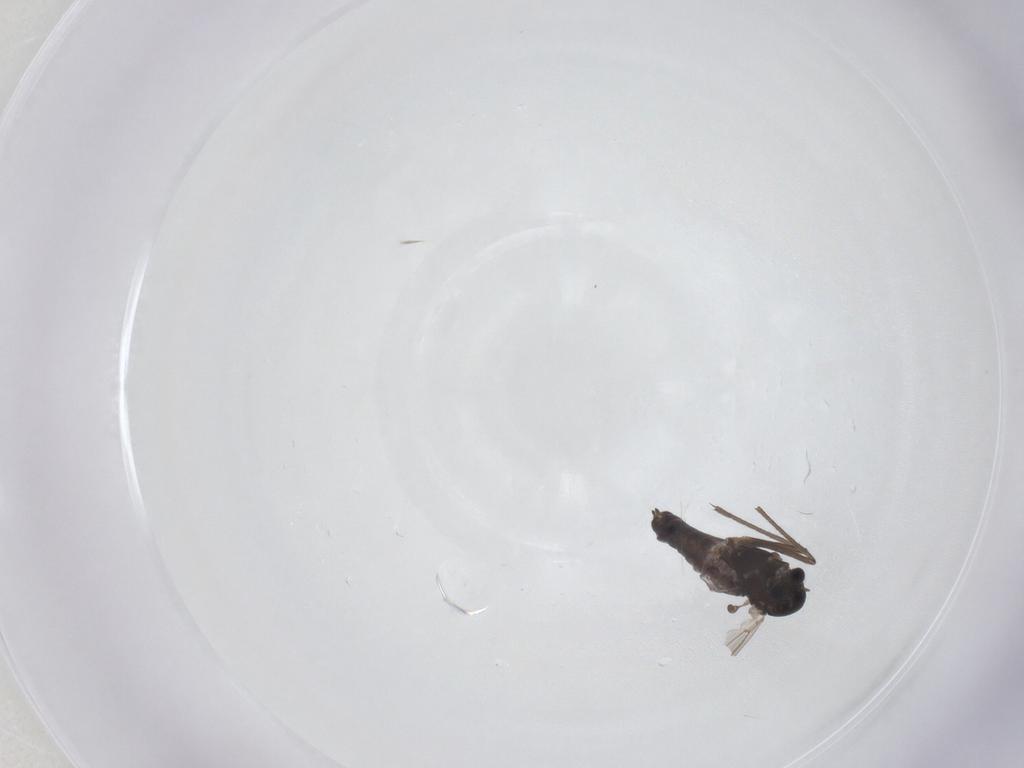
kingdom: Animalia
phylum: Arthropoda
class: Insecta
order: Diptera
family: Chironomidae
